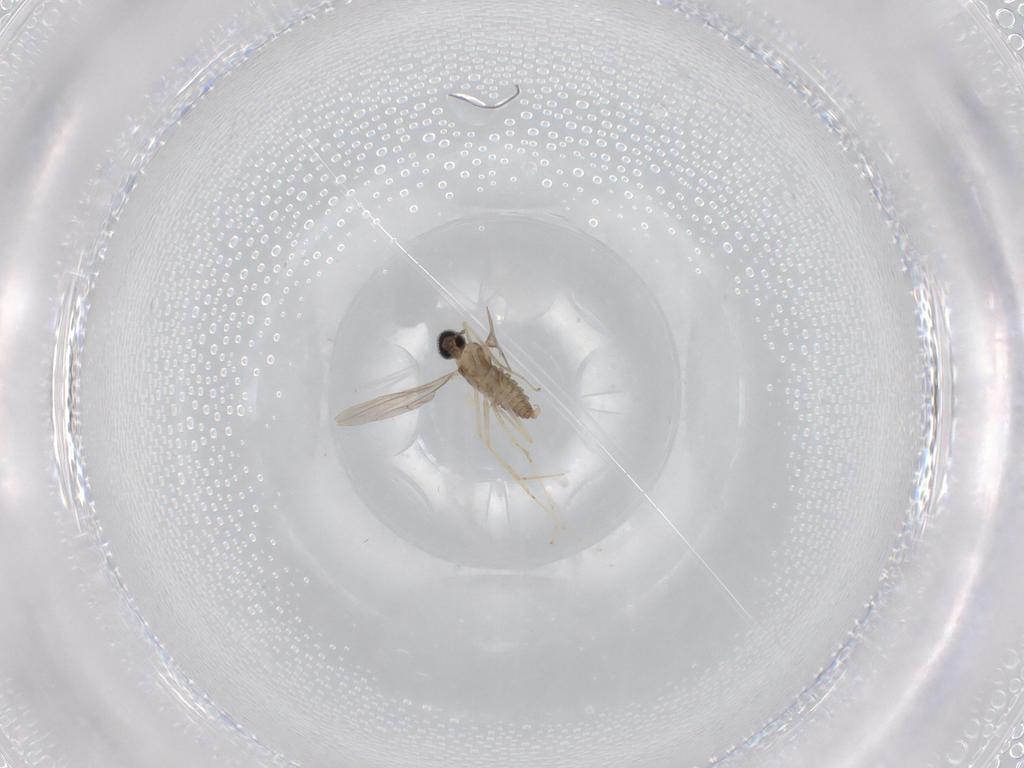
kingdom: Animalia
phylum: Arthropoda
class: Insecta
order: Diptera
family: Cecidomyiidae
